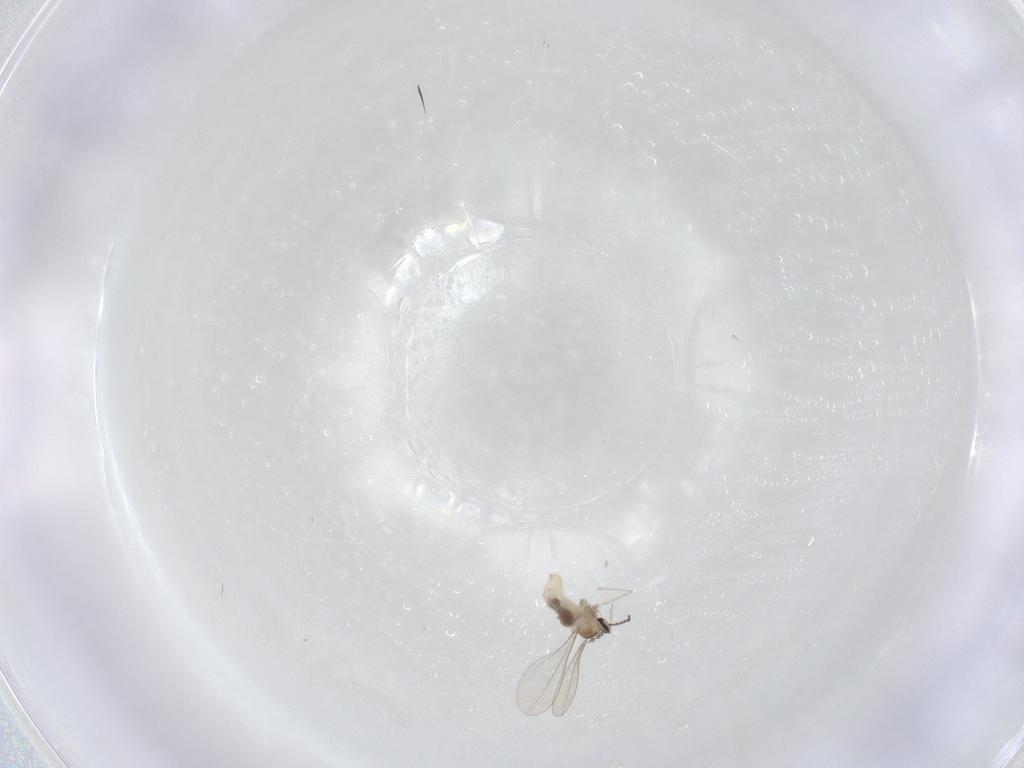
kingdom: Animalia
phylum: Arthropoda
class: Insecta
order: Diptera
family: Cecidomyiidae
